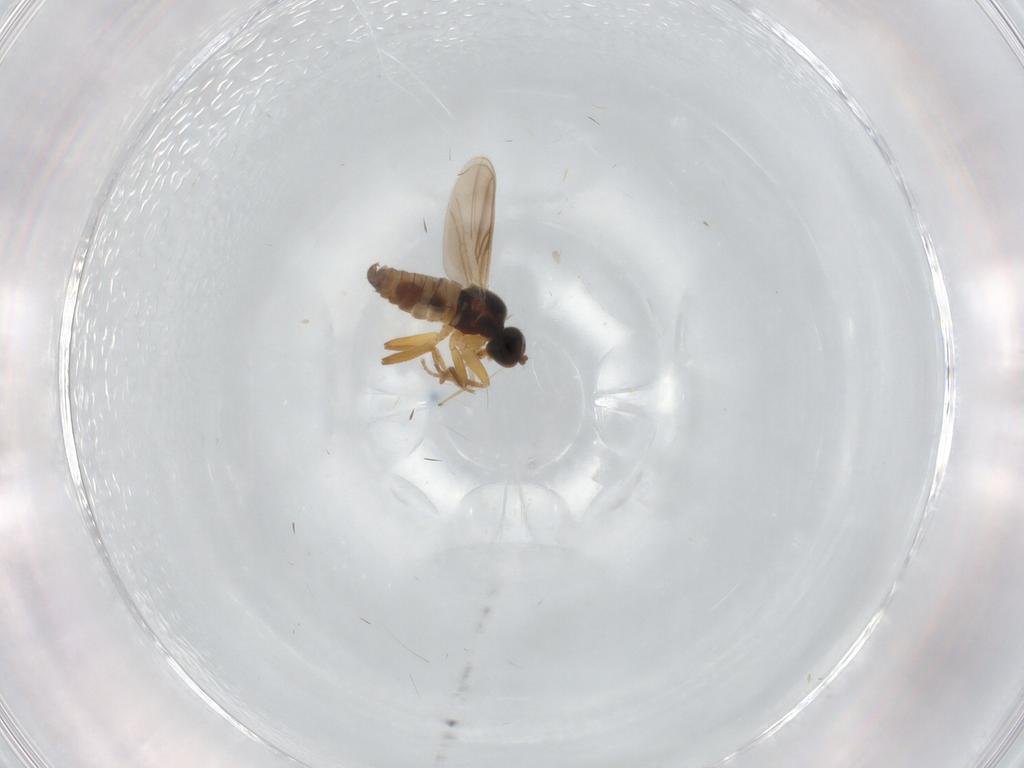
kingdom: Animalia
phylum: Arthropoda
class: Insecta
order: Diptera
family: Hybotidae
